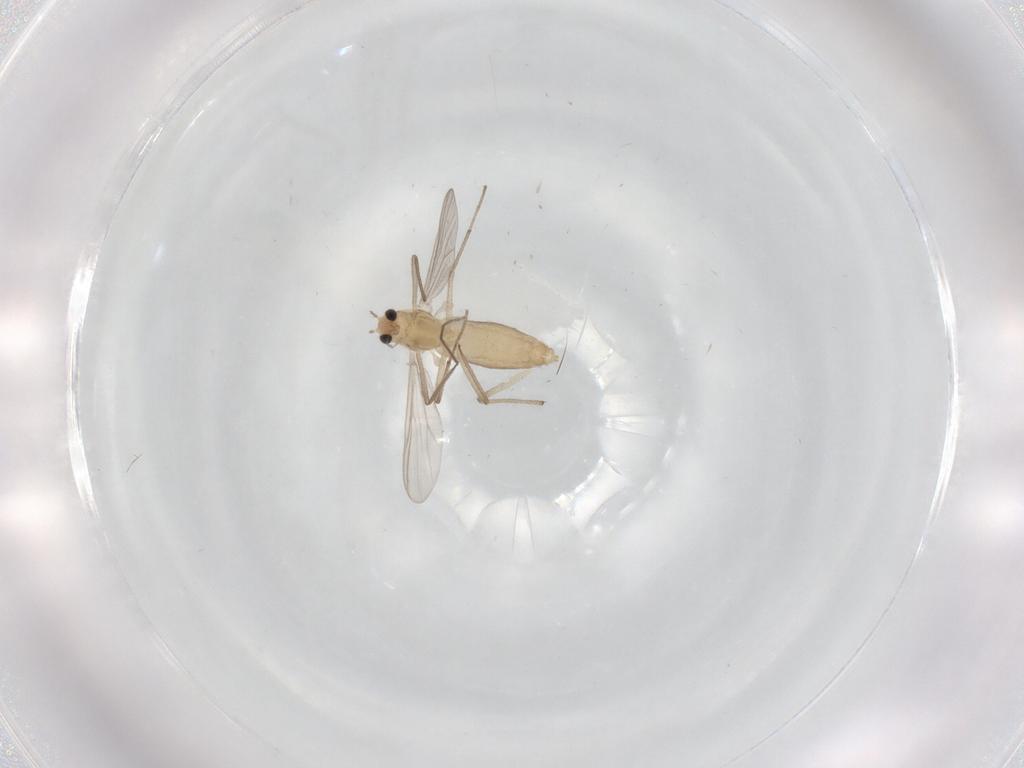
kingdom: Animalia
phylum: Arthropoda
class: Insecta
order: Diptera
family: Chironomidae
